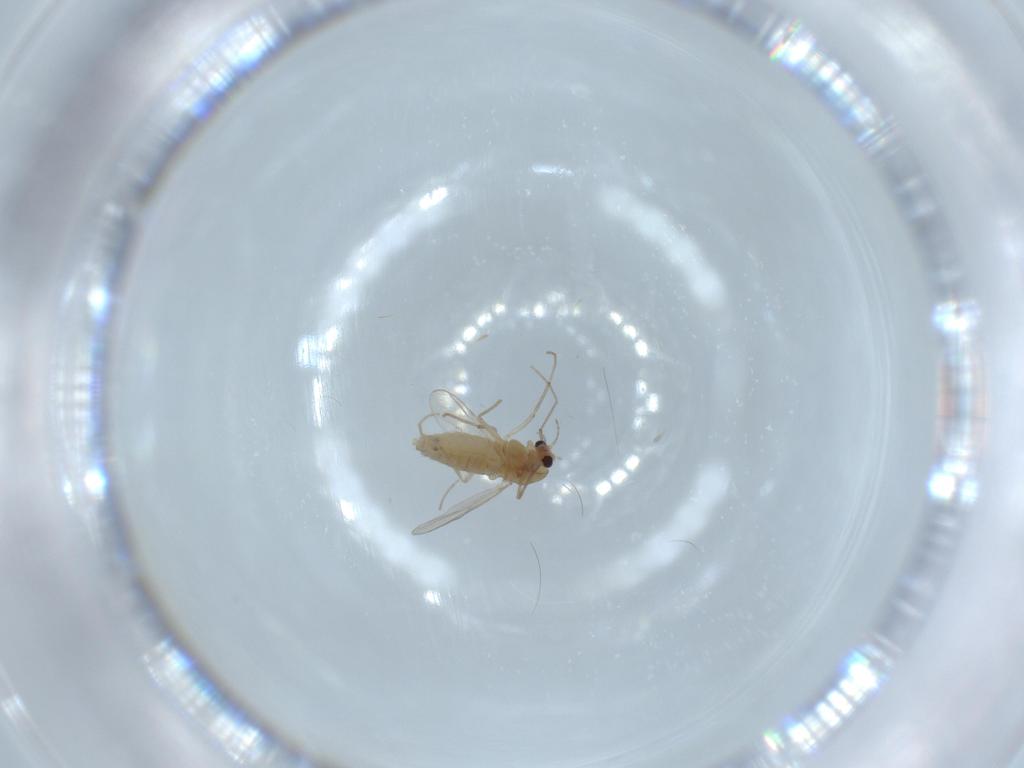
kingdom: Animalia
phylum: Arthropoda
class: Insecta
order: Diptera
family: Chironomidae
